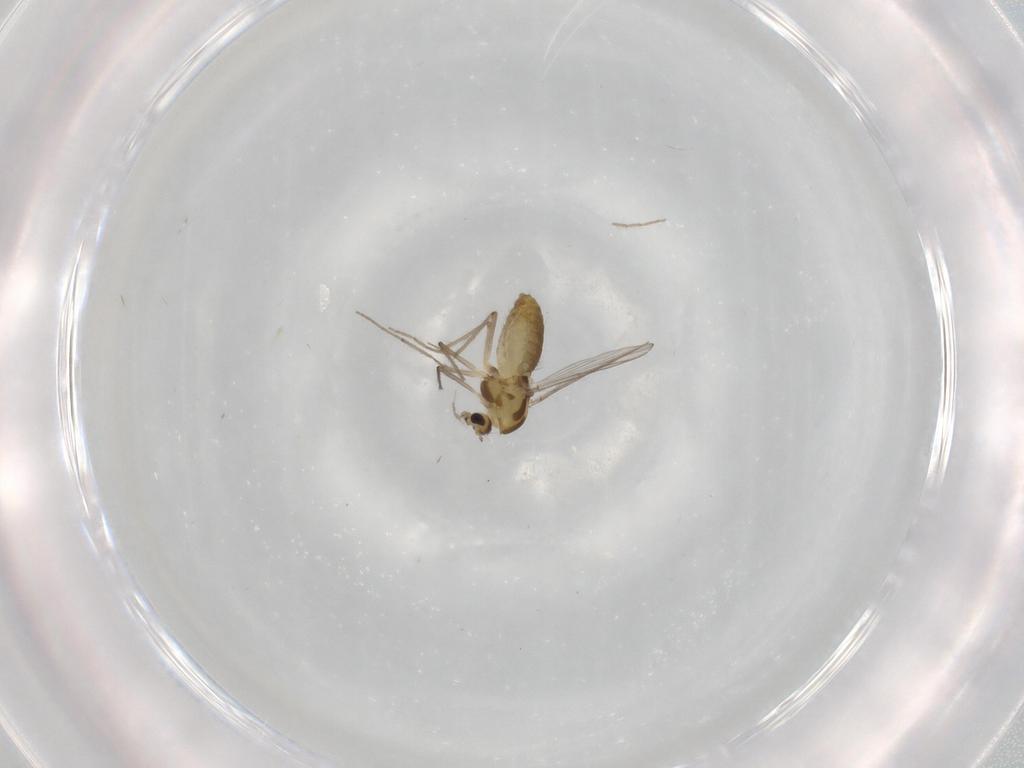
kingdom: Animalia
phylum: Arthropoda
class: Insecta
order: Diptera
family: Chironomidae
